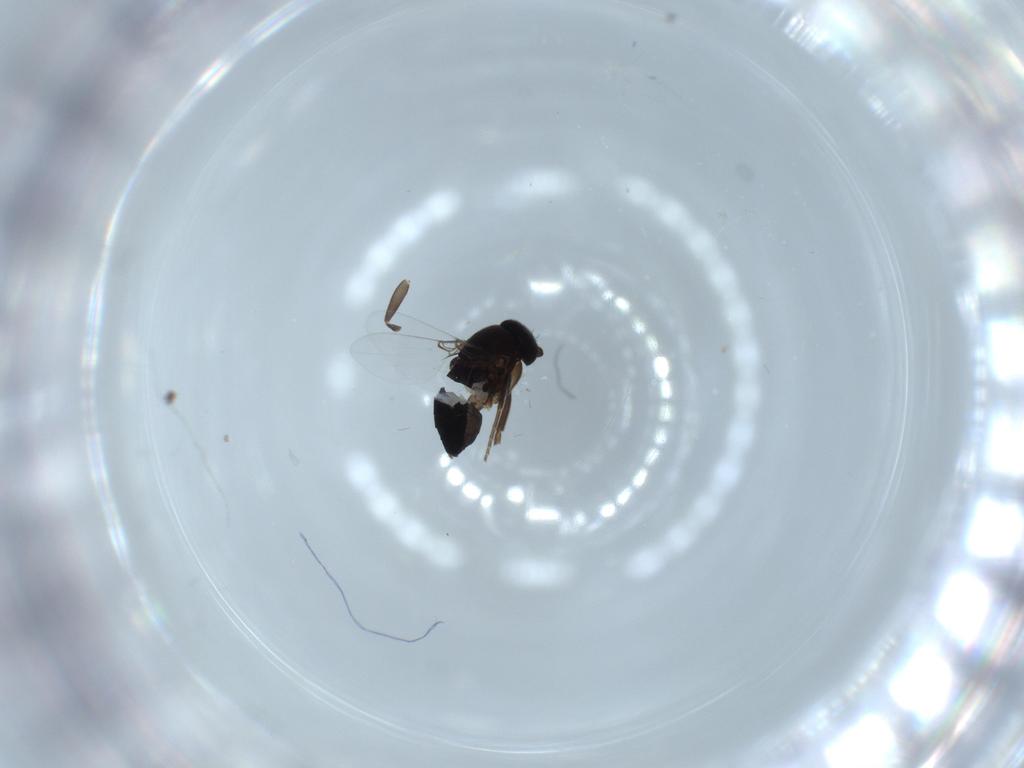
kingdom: Animalia
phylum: Arthropoda
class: Insecta
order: Diptera
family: Phoridae
